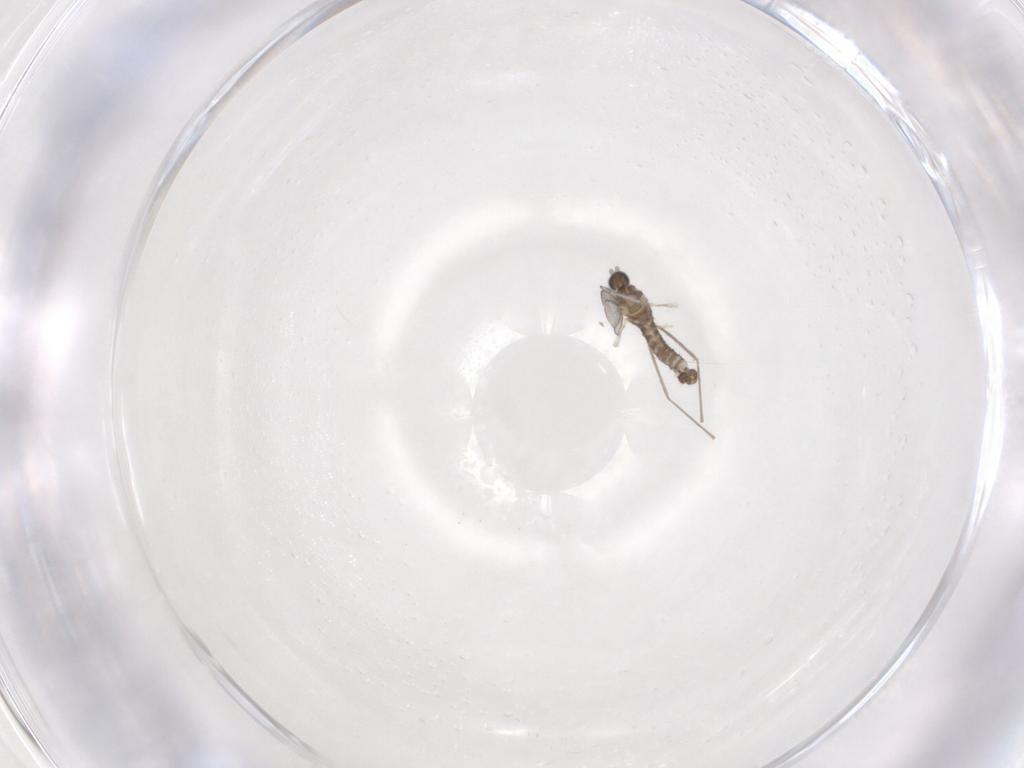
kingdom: Animalia
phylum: Arthropoda
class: Insecta
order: Diptera
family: Cecidomyiidae
